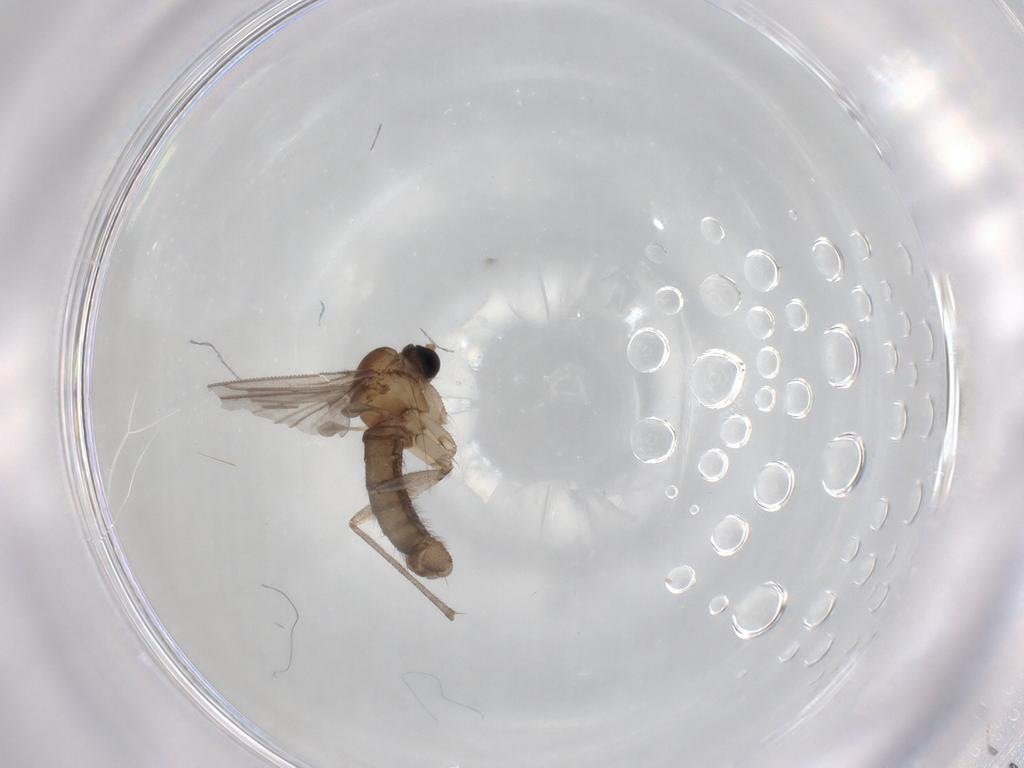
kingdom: Animalia
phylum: Arthropoda
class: Insecta
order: Diptera
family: Sciaridae
